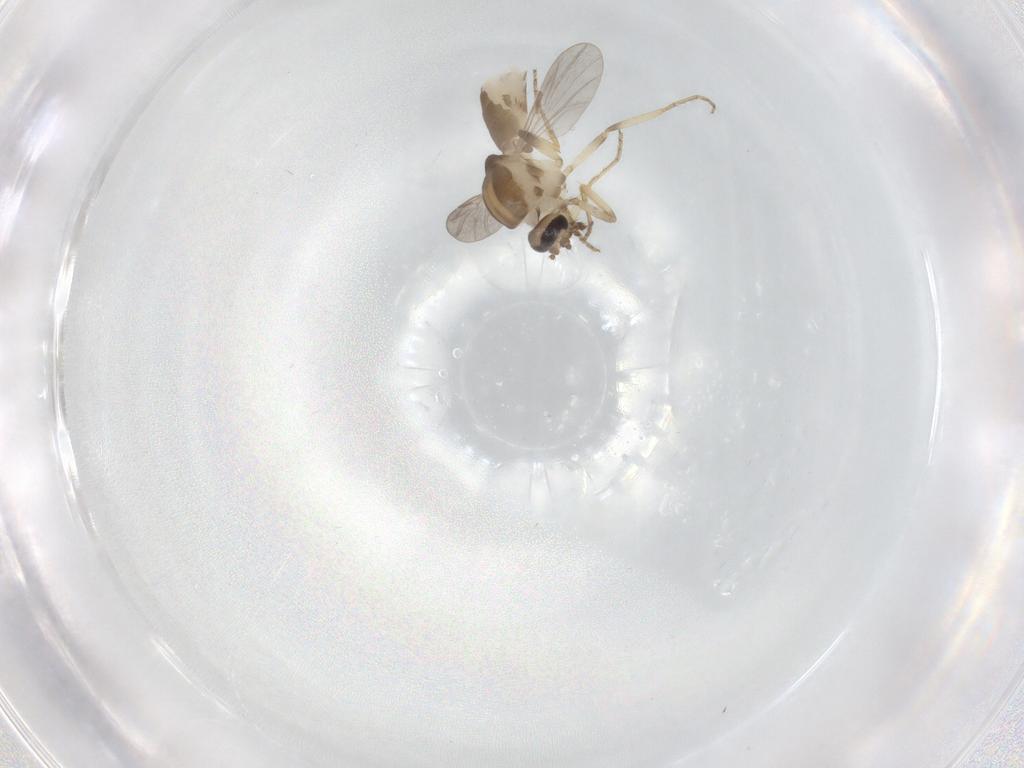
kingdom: Animalia
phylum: Arthropoda
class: Insecta
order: Diptera
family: Ceratopogonidae
